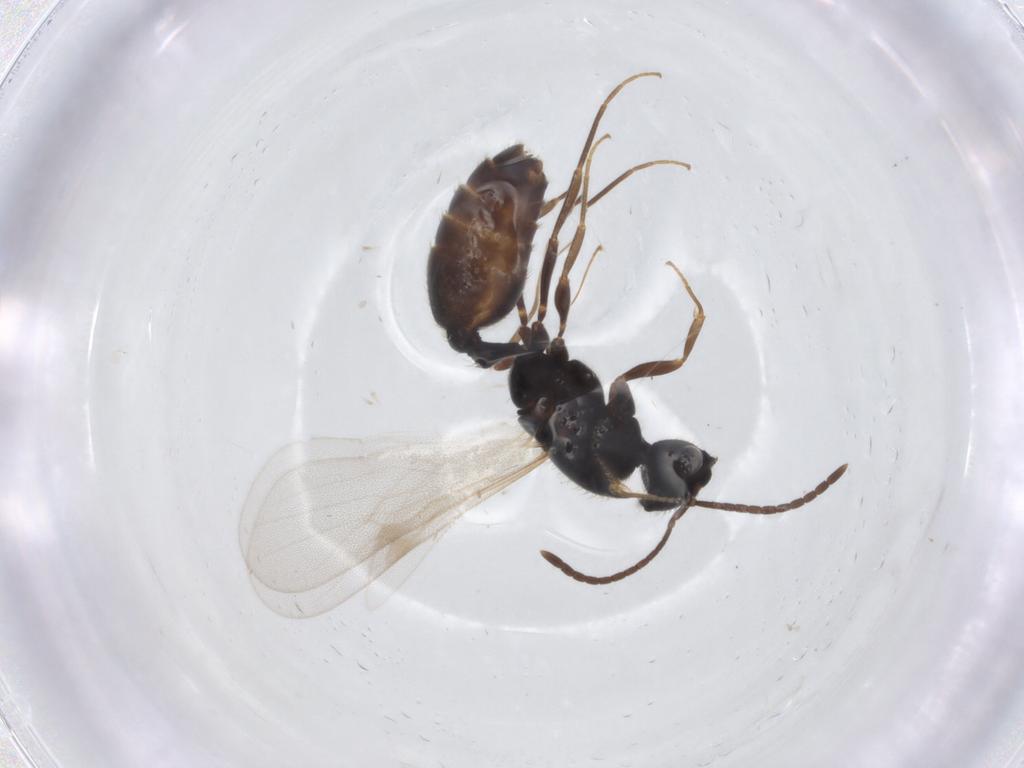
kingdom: Animalia
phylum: Arthropoda
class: Insecta
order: Hymenoptera
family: Formicidae
